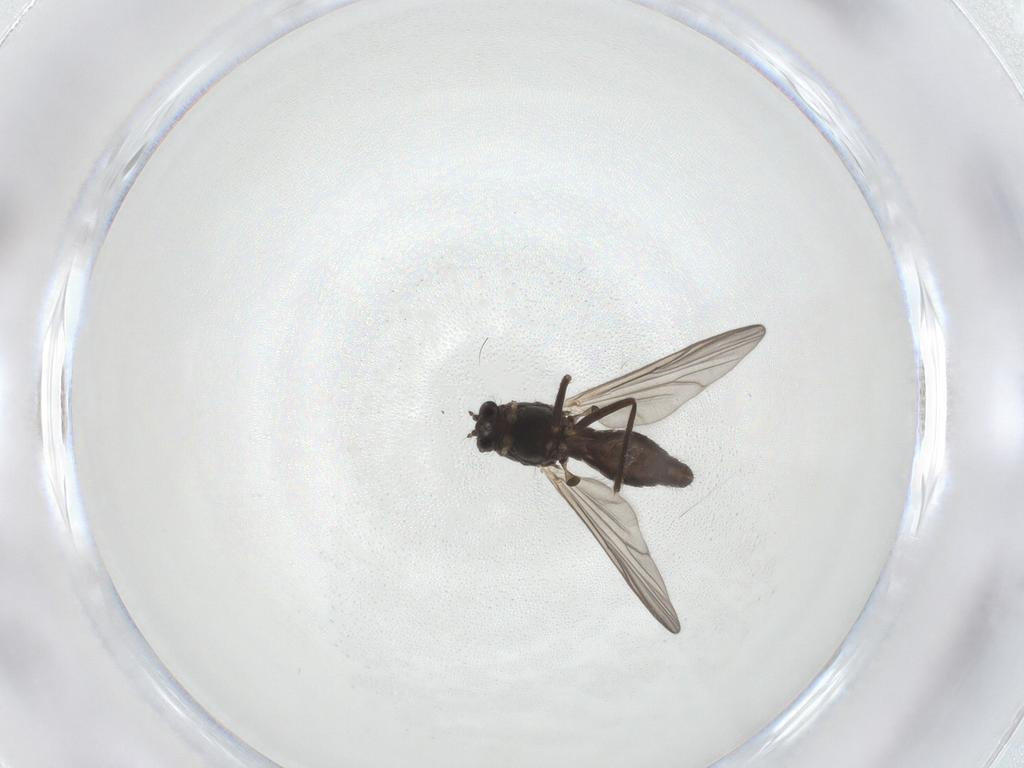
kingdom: Animalia
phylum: Arthropoda
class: Insecta
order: Diptera
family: Chironomidae
